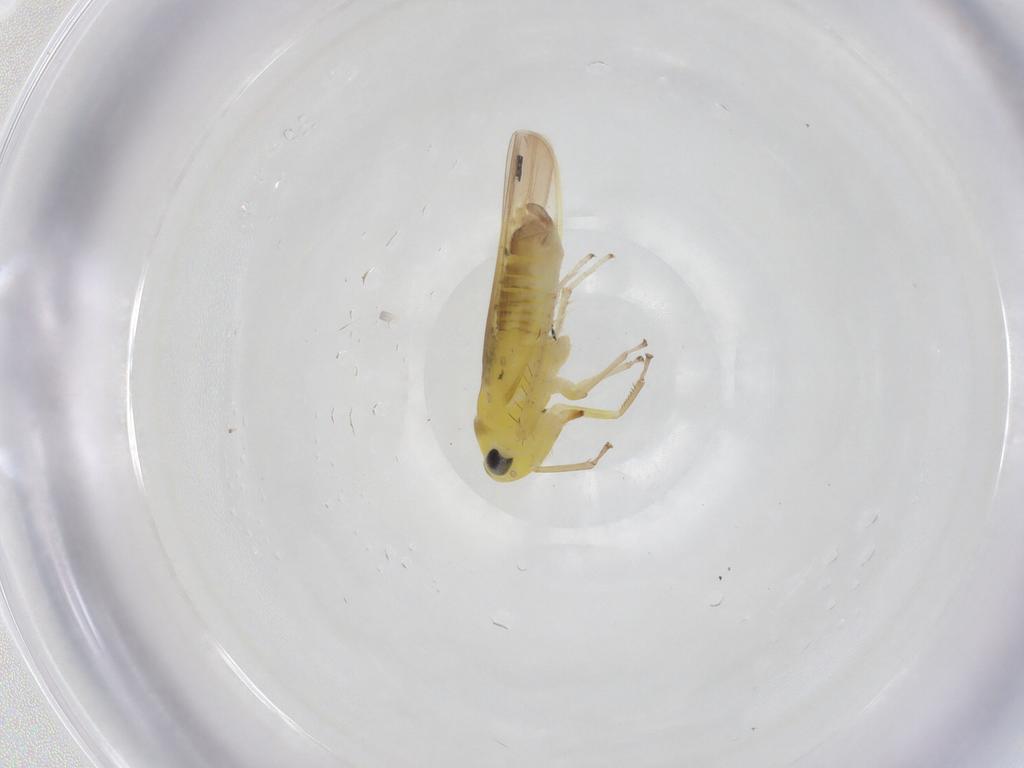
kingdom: Animalia
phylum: Arthropoda
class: Insecta
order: Hemiptera
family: Cicadellidae
